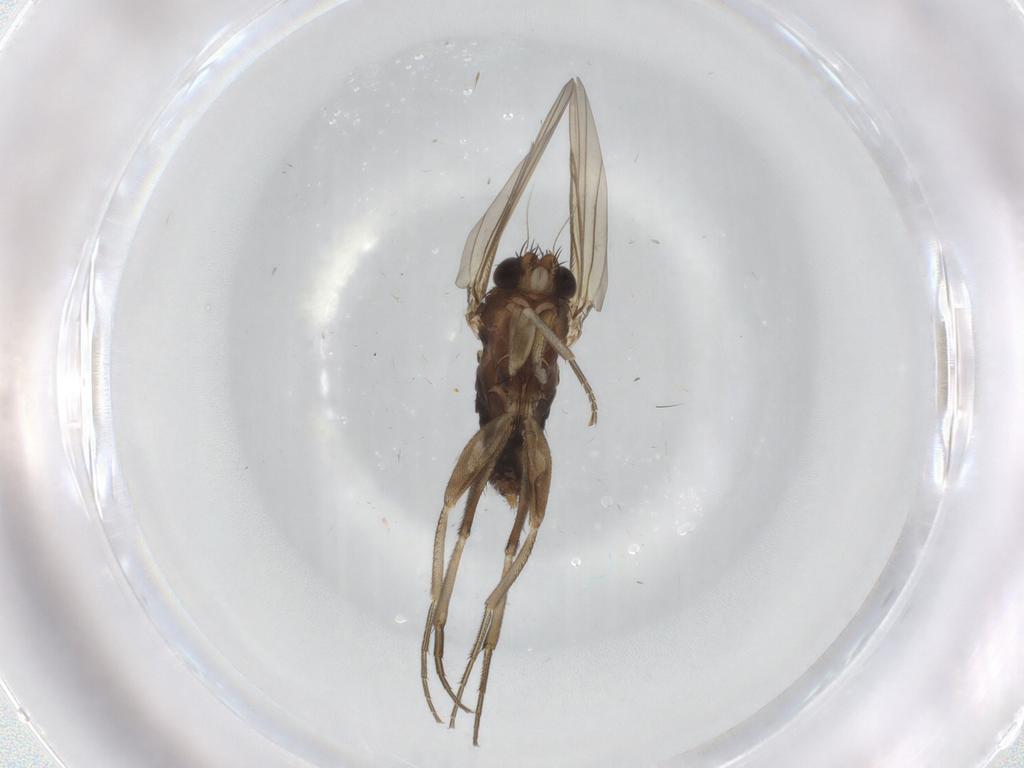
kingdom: Animalia
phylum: Arthropoda
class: Insecta
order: Diptera
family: Phoridae
